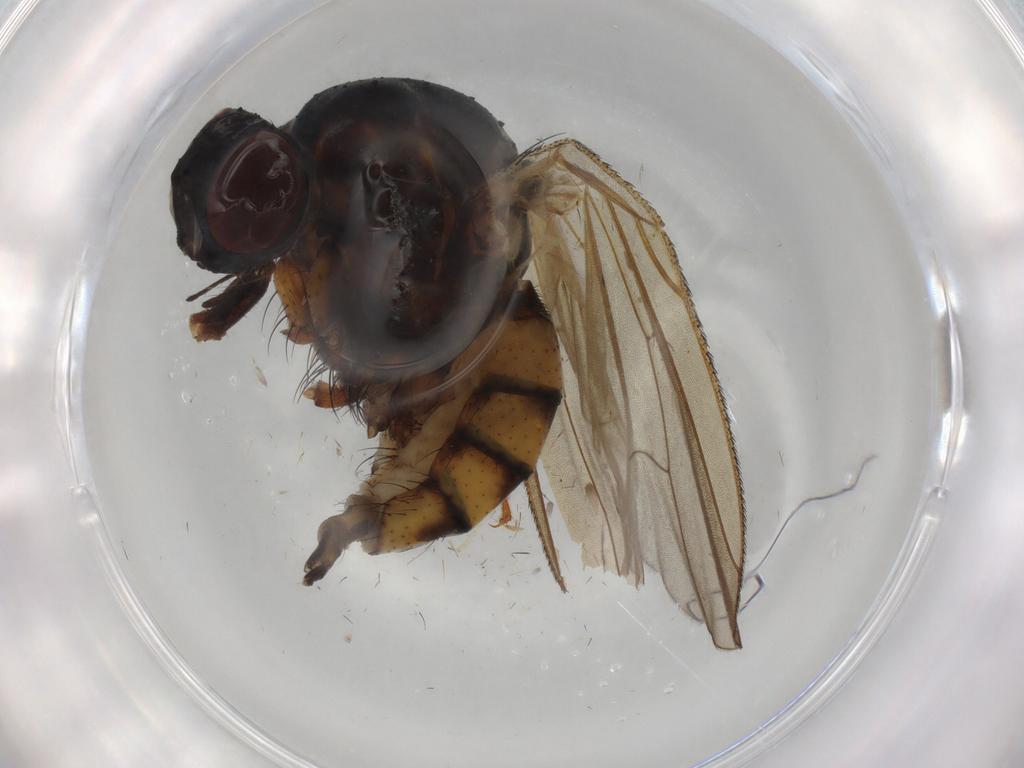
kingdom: Animalia
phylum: Arthropoda
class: Insecta
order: Diptera
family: Anthomyiidae
